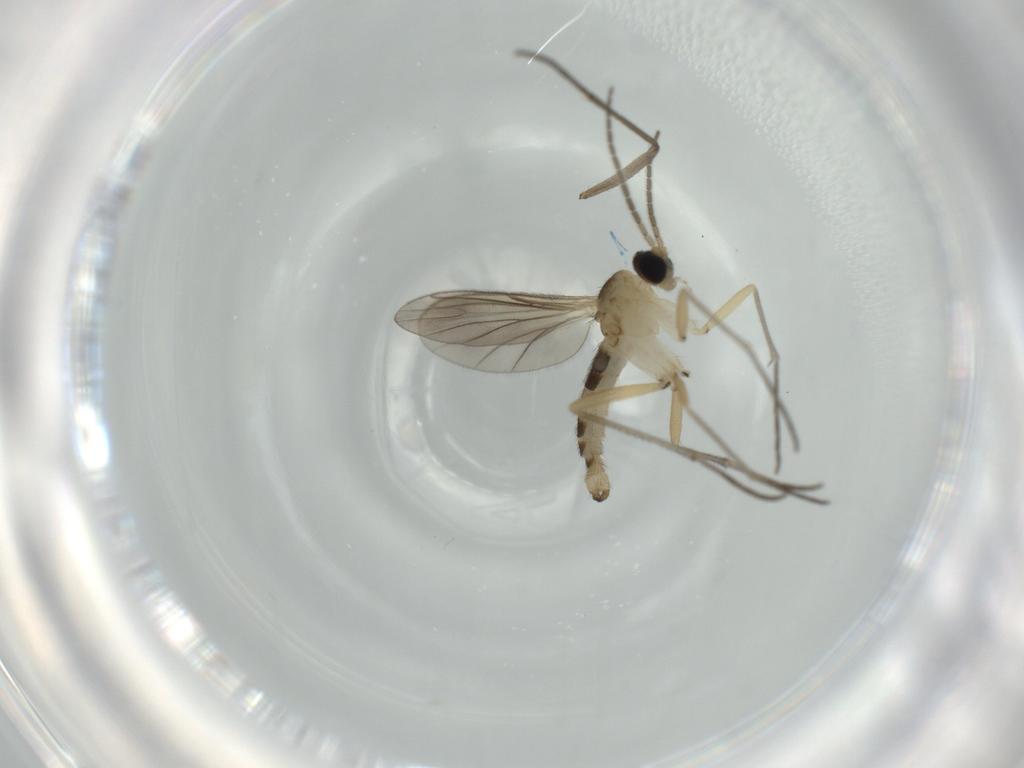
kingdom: Animalia
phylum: Arthropoda
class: Insecta
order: Diptera
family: Sciaridae
